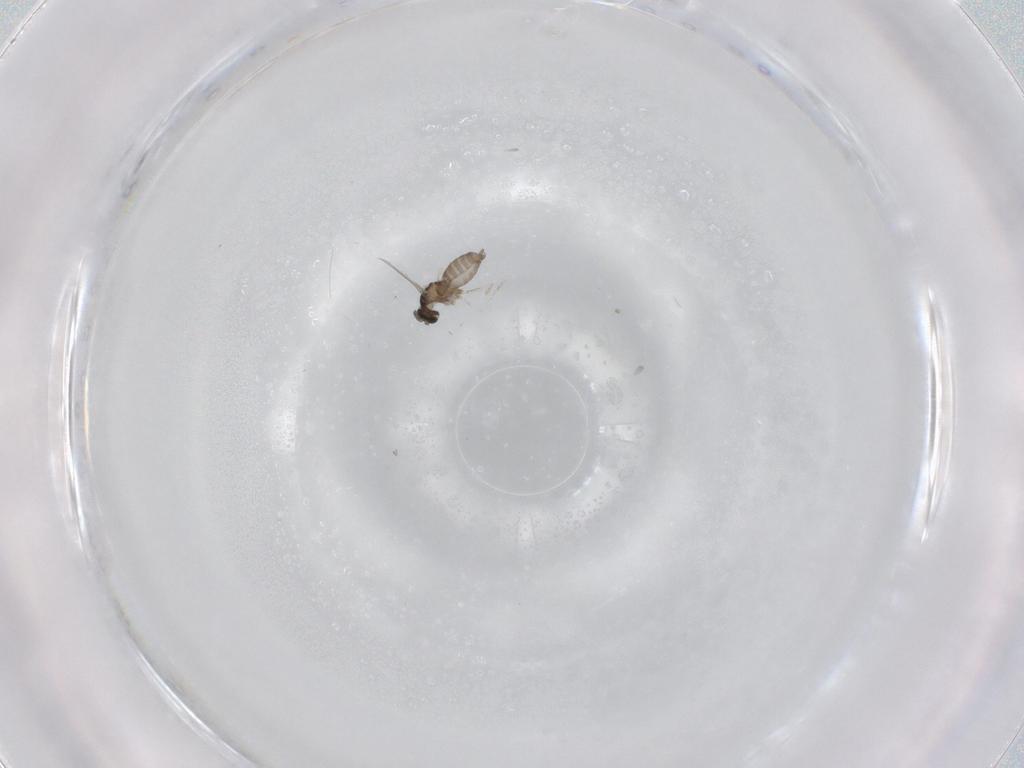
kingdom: Animalia
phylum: Arthropoda
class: Insecta
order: Diptera
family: Cecidomyiidae
